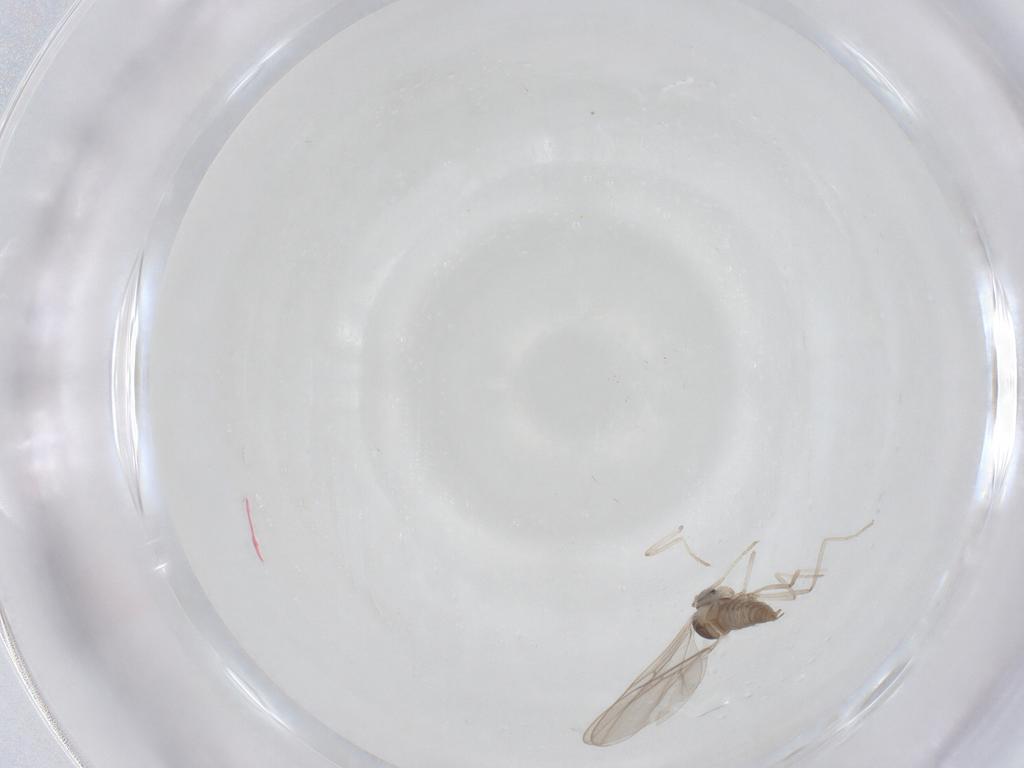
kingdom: Animalia
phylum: Arthropoda
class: Insecta
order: Diptera
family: Cecidomyiidae
